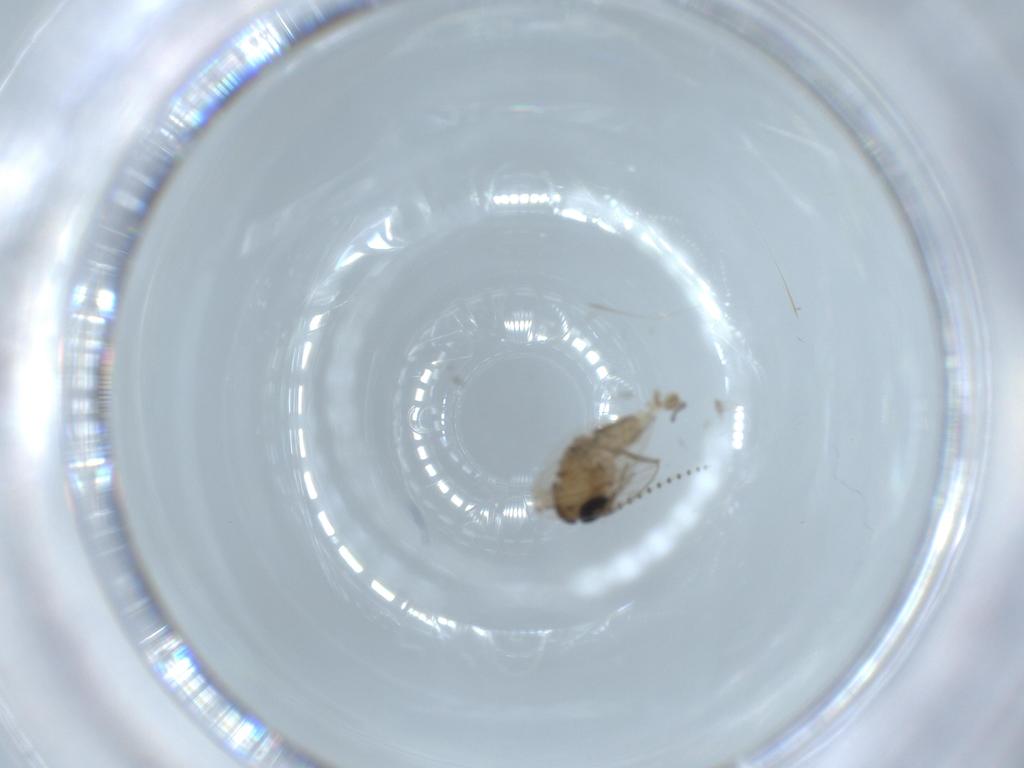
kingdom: Animalia
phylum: Arthropoda
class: Insecta
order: Diptera
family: Psychodidae
